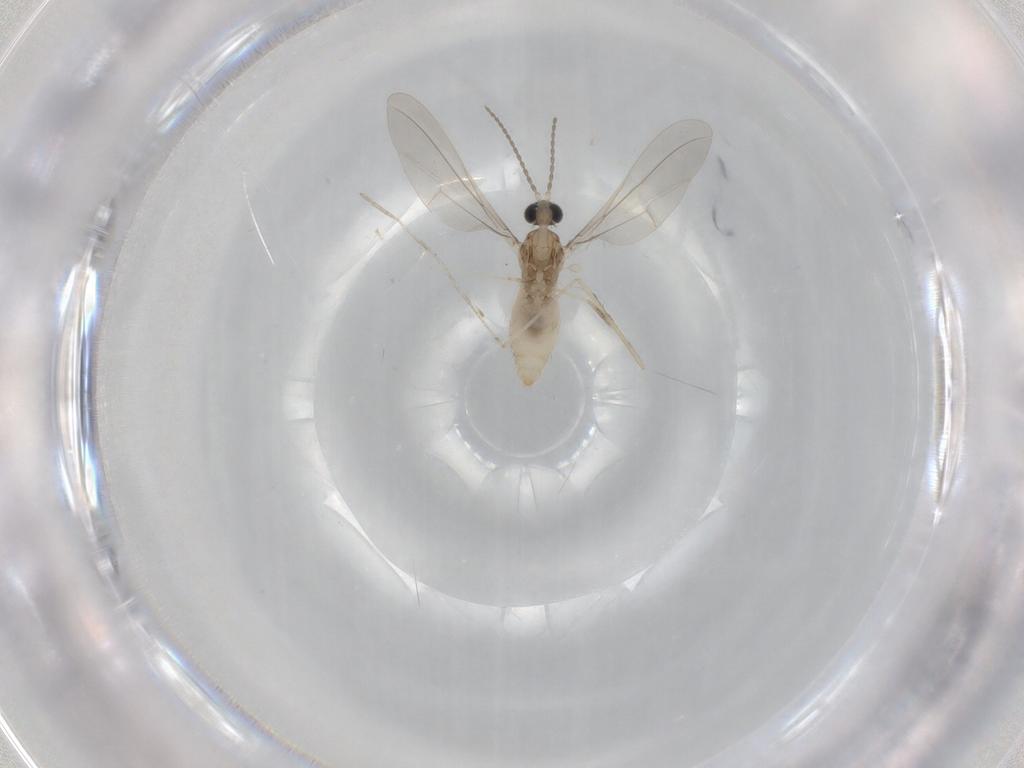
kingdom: Animalia
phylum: Arthropoda
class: Insecta
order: Diptera
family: Cecidomyiidae
